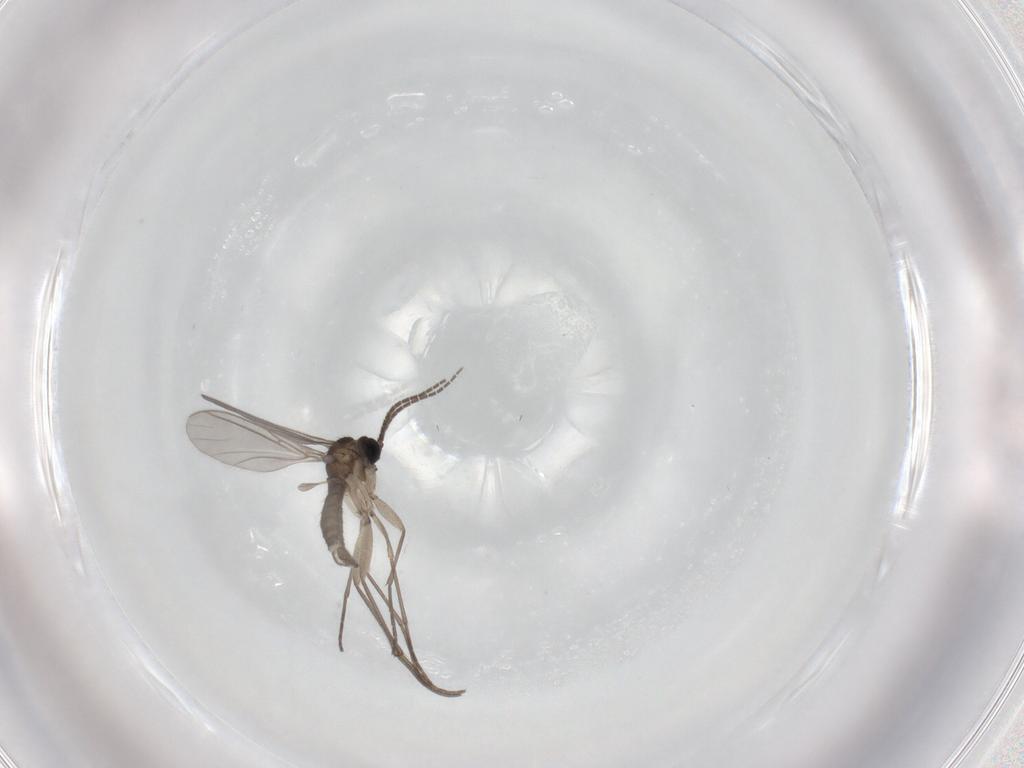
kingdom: Animalia
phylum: Arthropoda
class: Insecta
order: Diptera
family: Sciaridae
